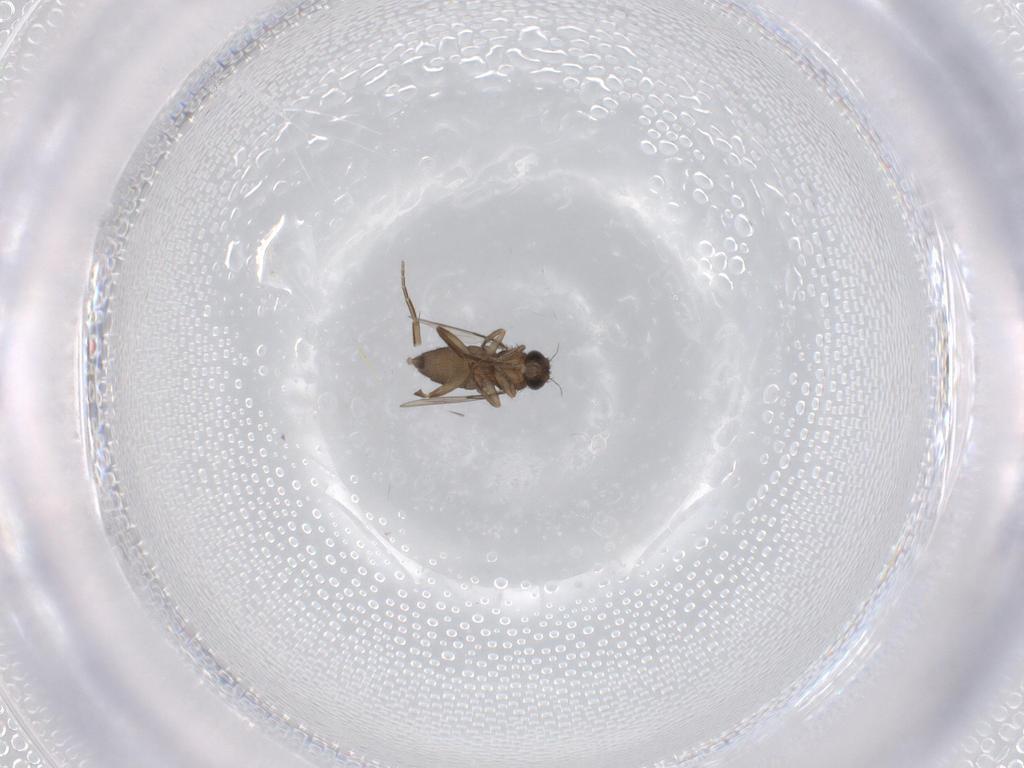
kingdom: Animalia
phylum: Arthropoda
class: Insecta
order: Diptera
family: Phoridae
